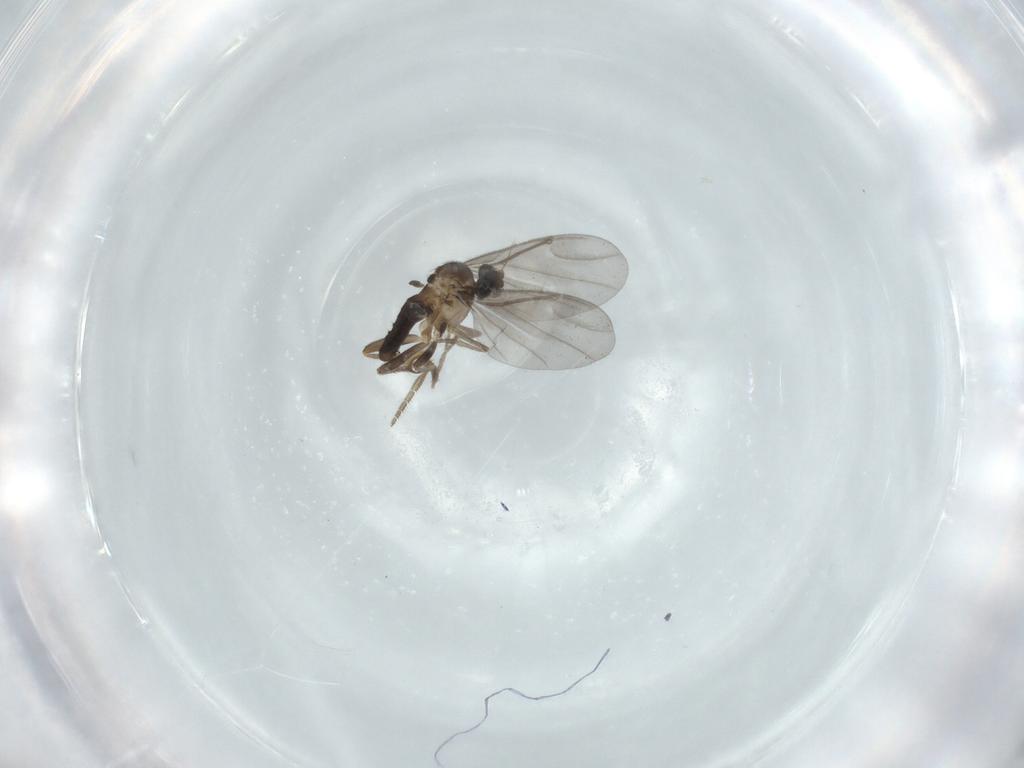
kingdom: Animalia
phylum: Arthropoda
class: Insecta
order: Diptera
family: Phoridae
